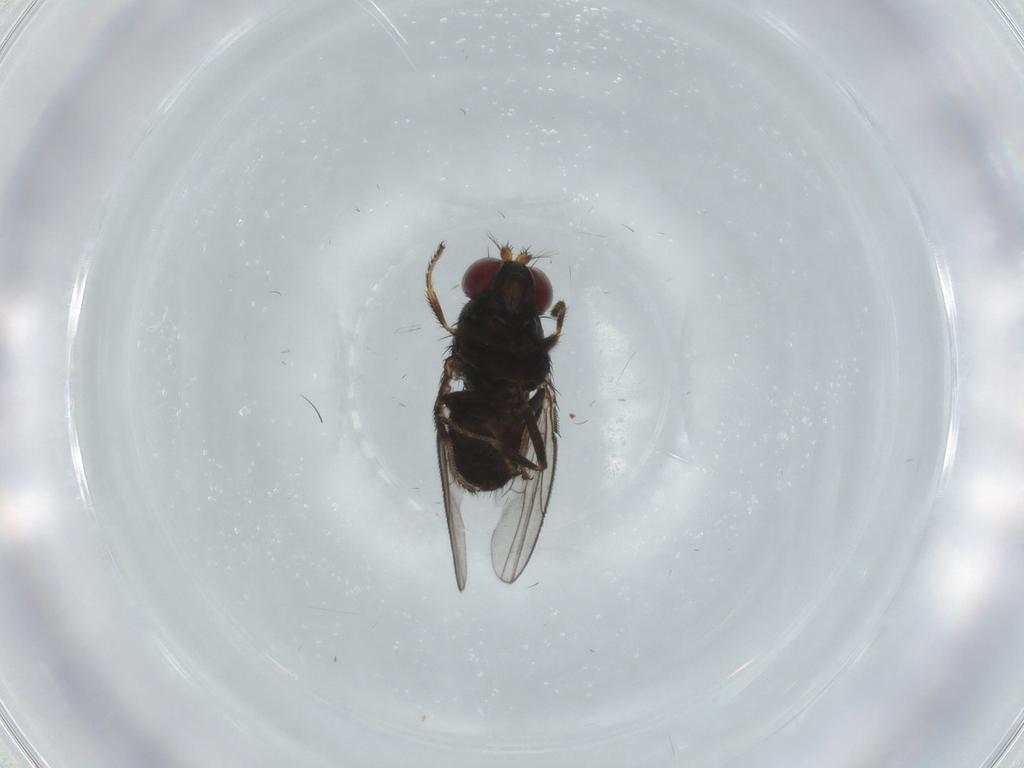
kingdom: Animalia
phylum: Arthropoda
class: Insecta
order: Diptera
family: Ephydridae
